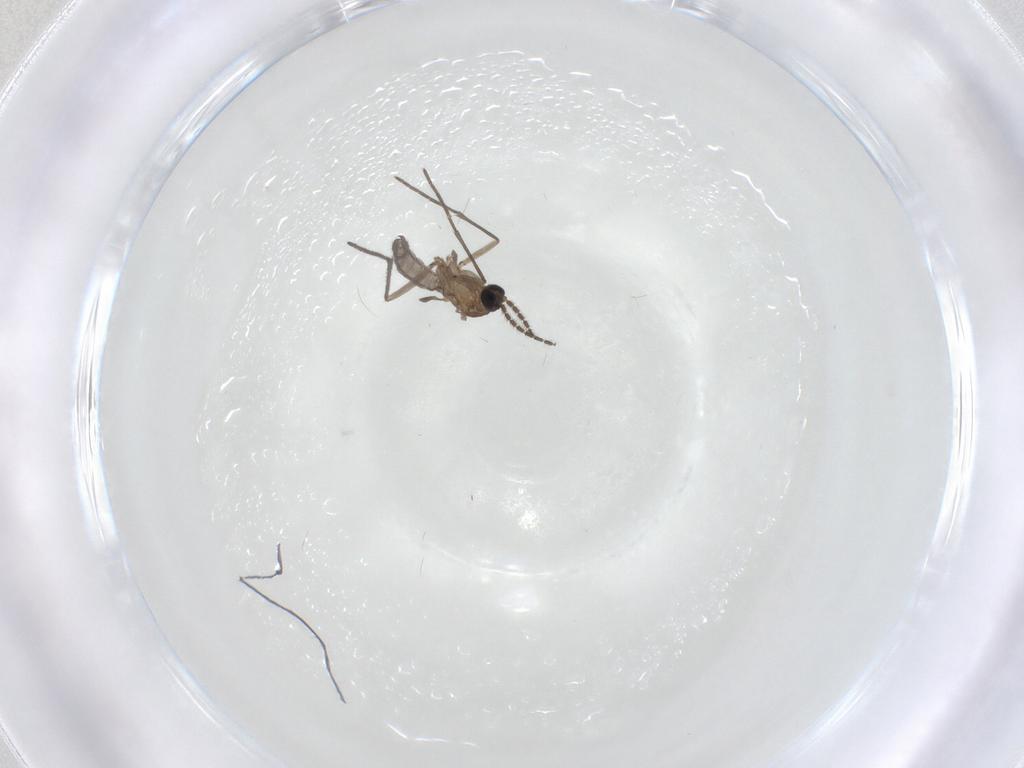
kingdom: Animalia
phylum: Arthropoda
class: Insecta
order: Diptera
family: Sciaridae
